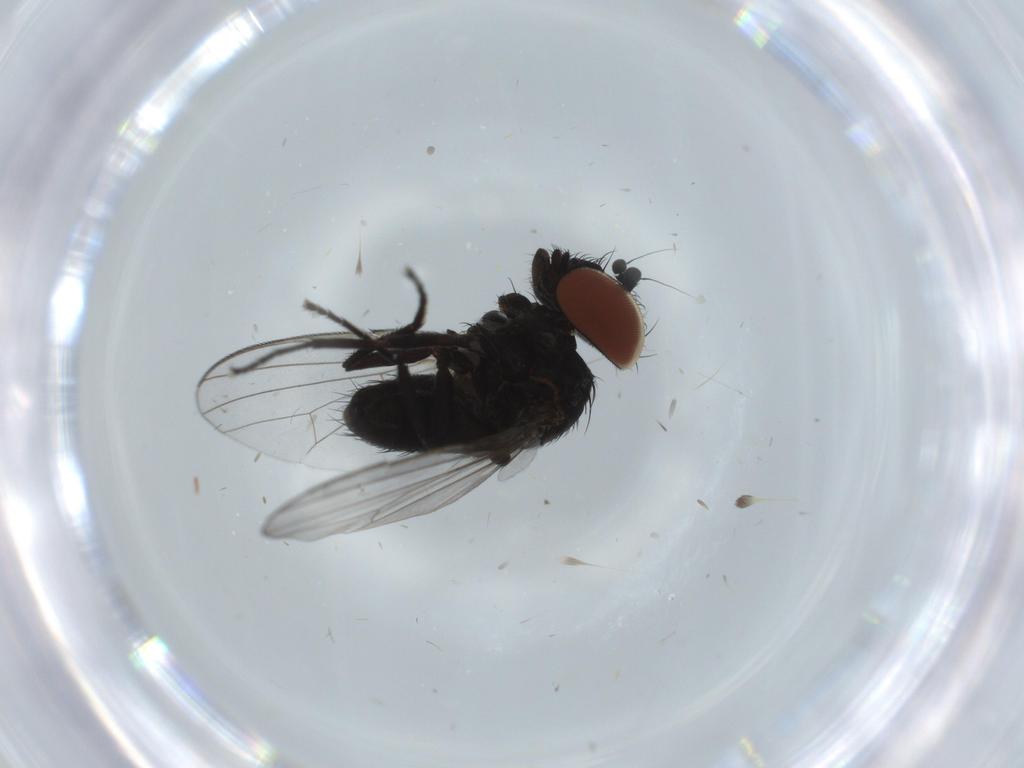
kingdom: Animalia
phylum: Arthropoda
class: Insecta
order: Diptera
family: Milichiidae
